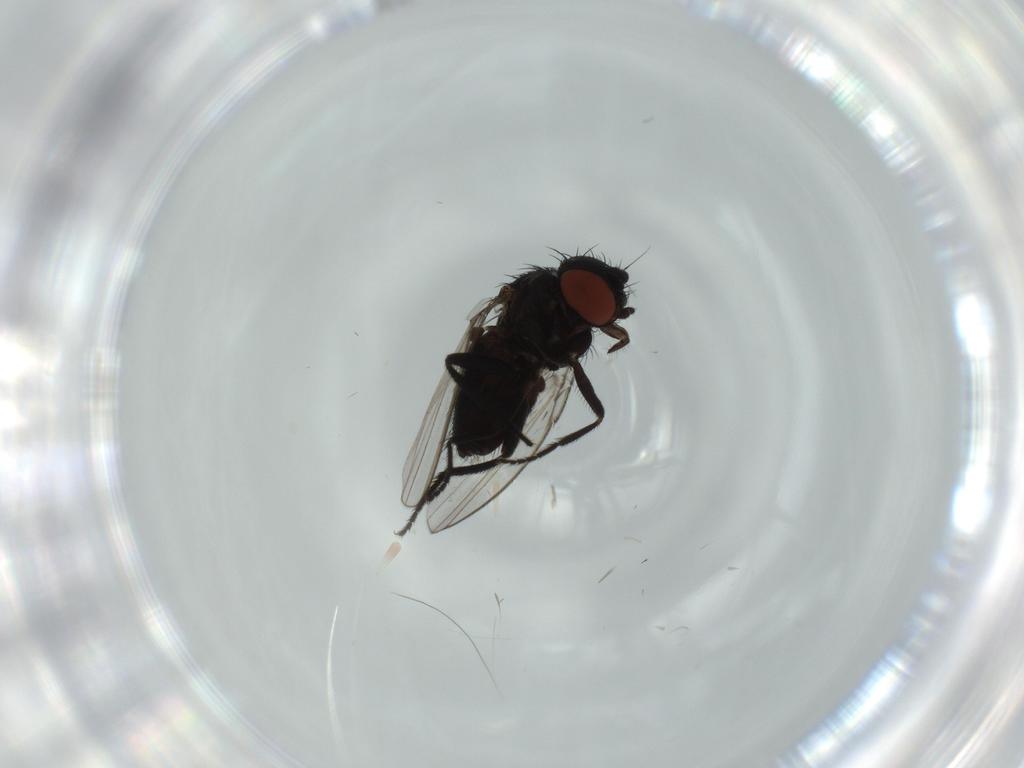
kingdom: Animalia
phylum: Arthropoda
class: Insecta
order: Diptera
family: Milichiidae
